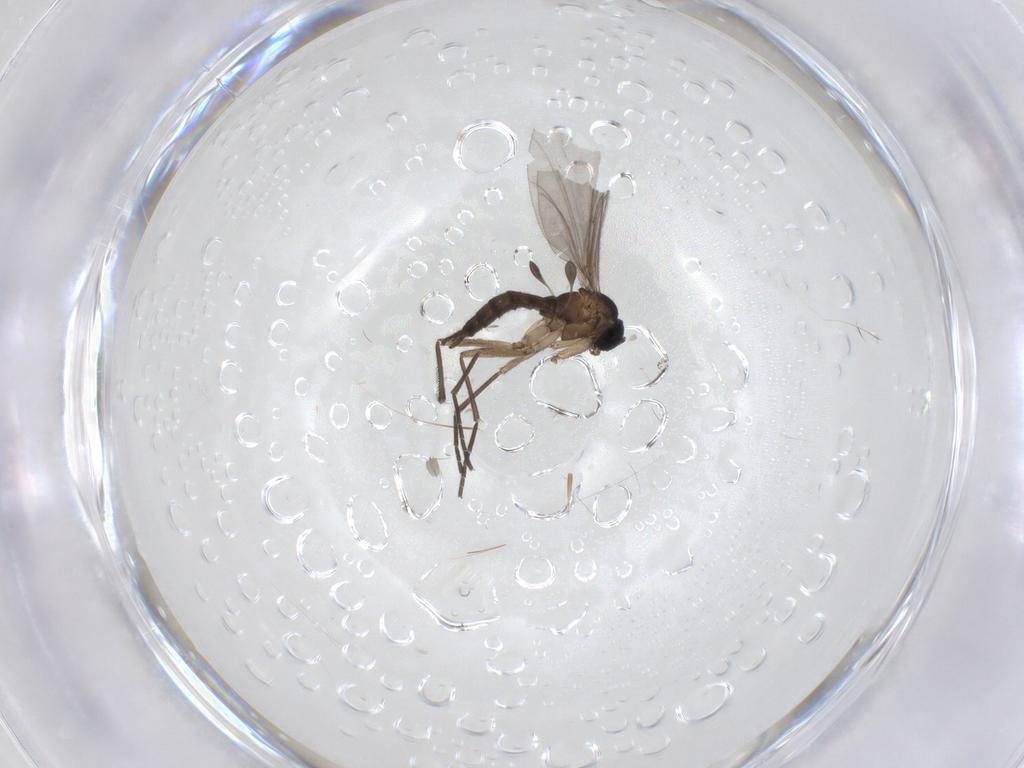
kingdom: Animalia
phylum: Arthropoda
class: Insecta
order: Diptera
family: Sciaridae
